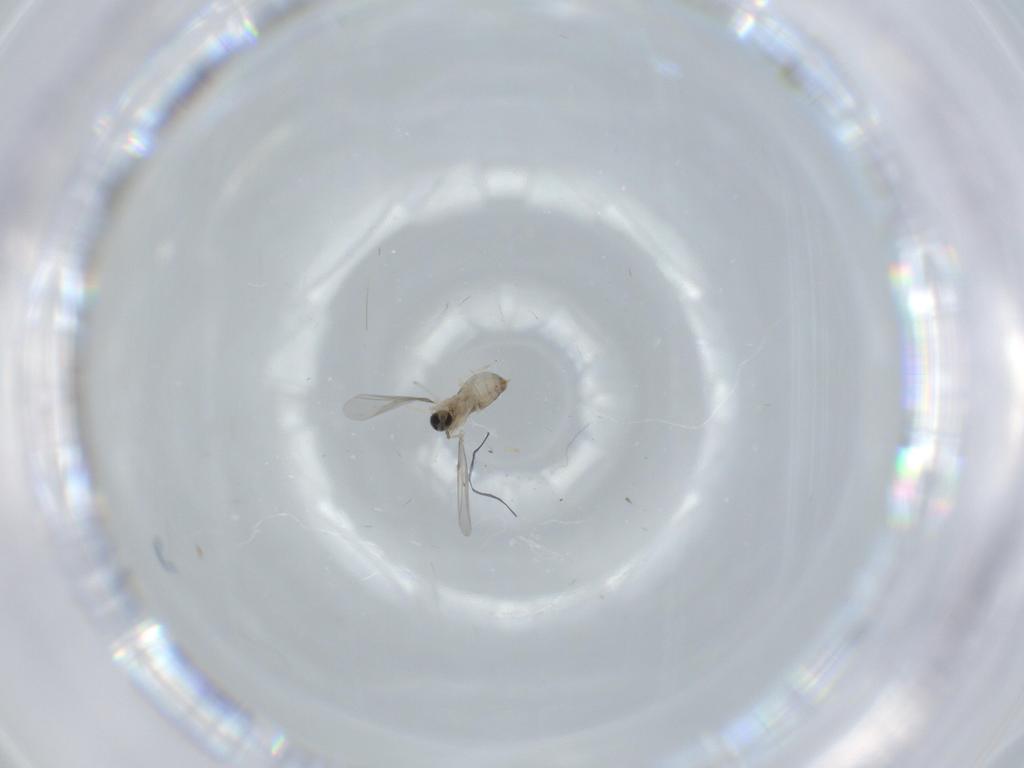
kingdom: Animalia
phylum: Arthropoda
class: Insecta
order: Diptera
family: Cecidomyiidae
